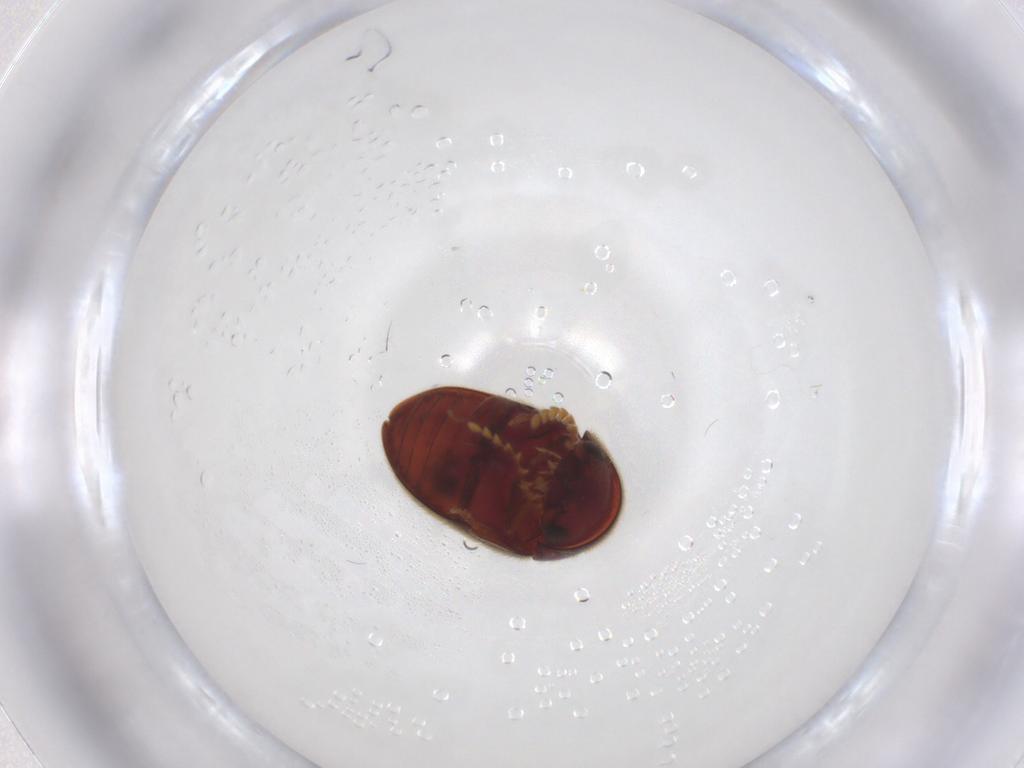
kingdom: Animalia
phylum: Arthropoda
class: Insecta
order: Coleoptera
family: Ptinidae
